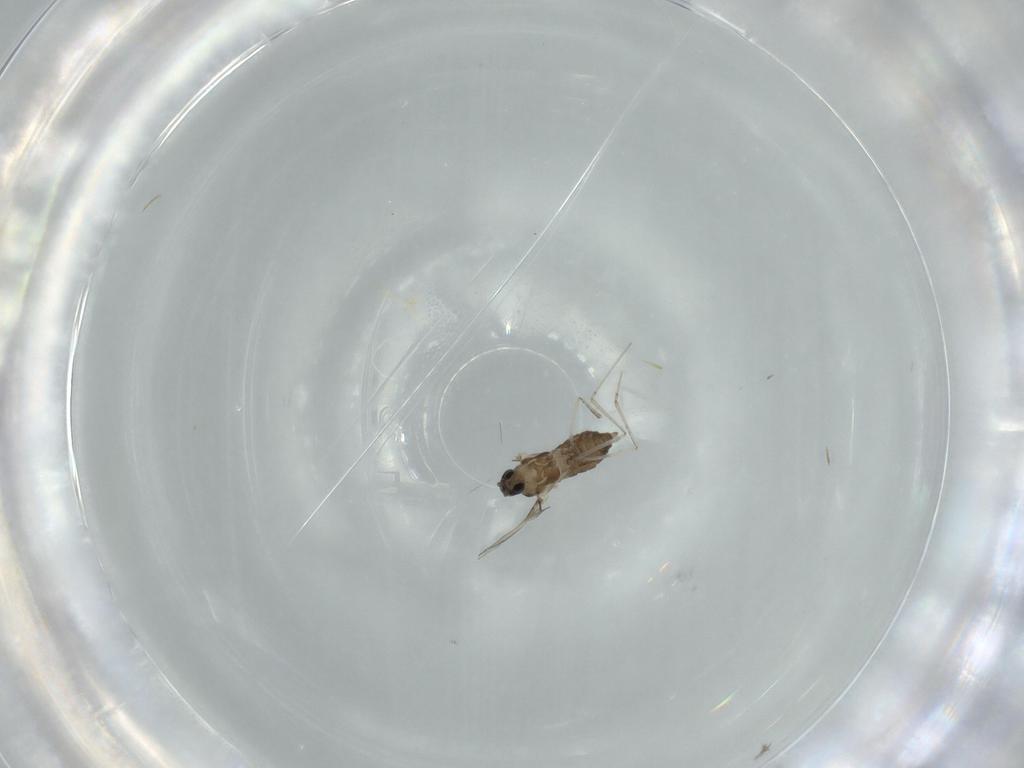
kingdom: Animalia
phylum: Arthropoda
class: Insecta
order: Diptera
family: Cecidomyiidae
